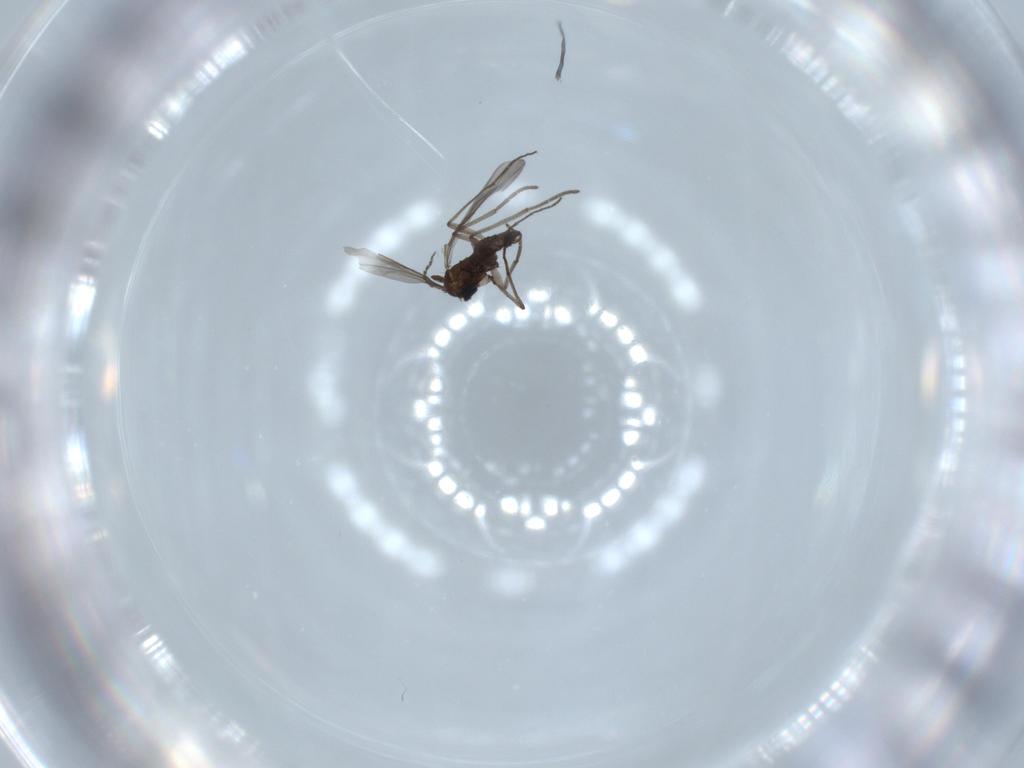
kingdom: Animalia
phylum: Arthropoda
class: Insecta
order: Diptera
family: Sciaridae
